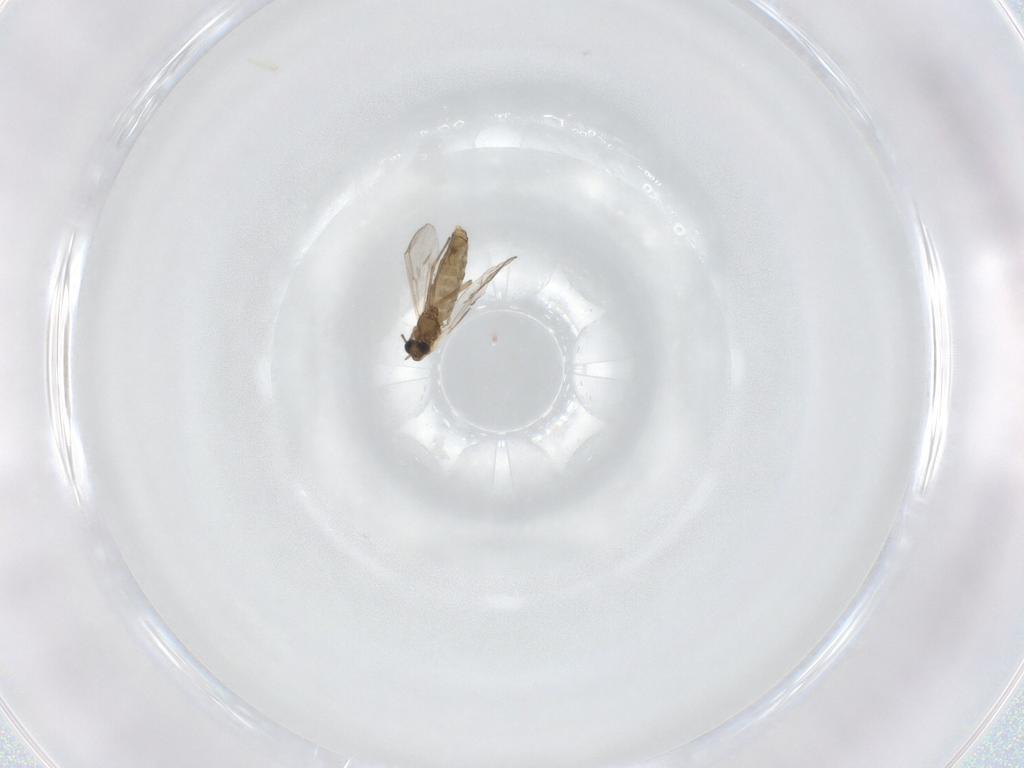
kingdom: Animalia
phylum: Arthropoda
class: Insecta
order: Diptera
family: Chironomidae
